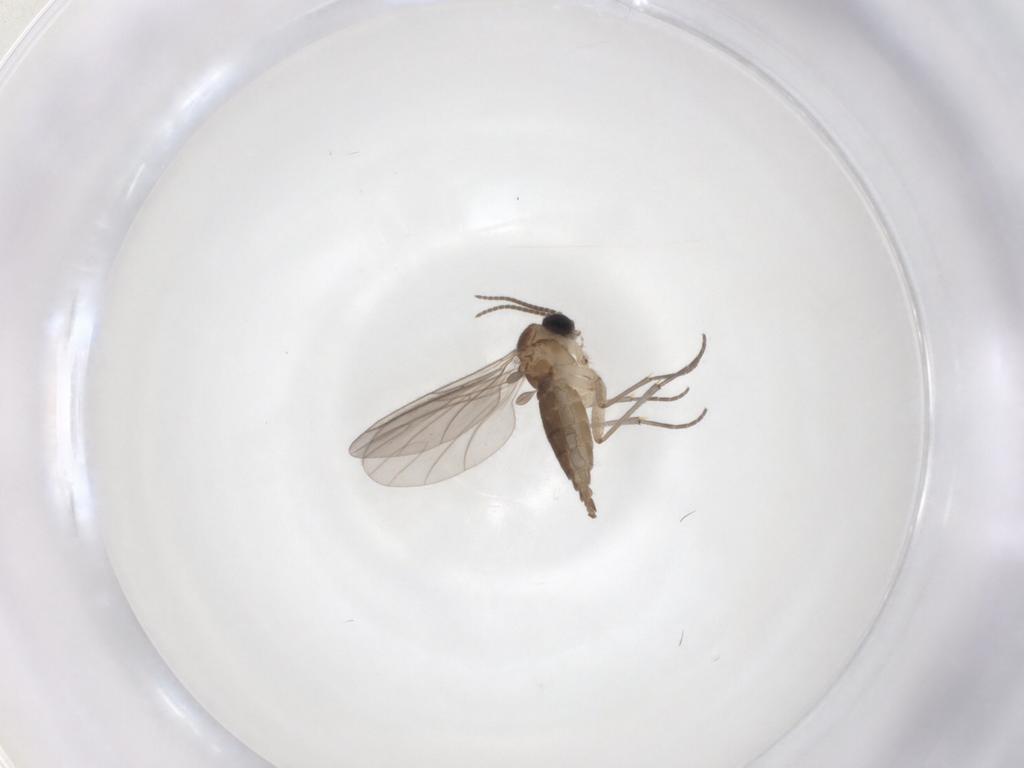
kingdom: Animalia
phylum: Arthropoda
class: Insecta
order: Diptera
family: Sciaridae
